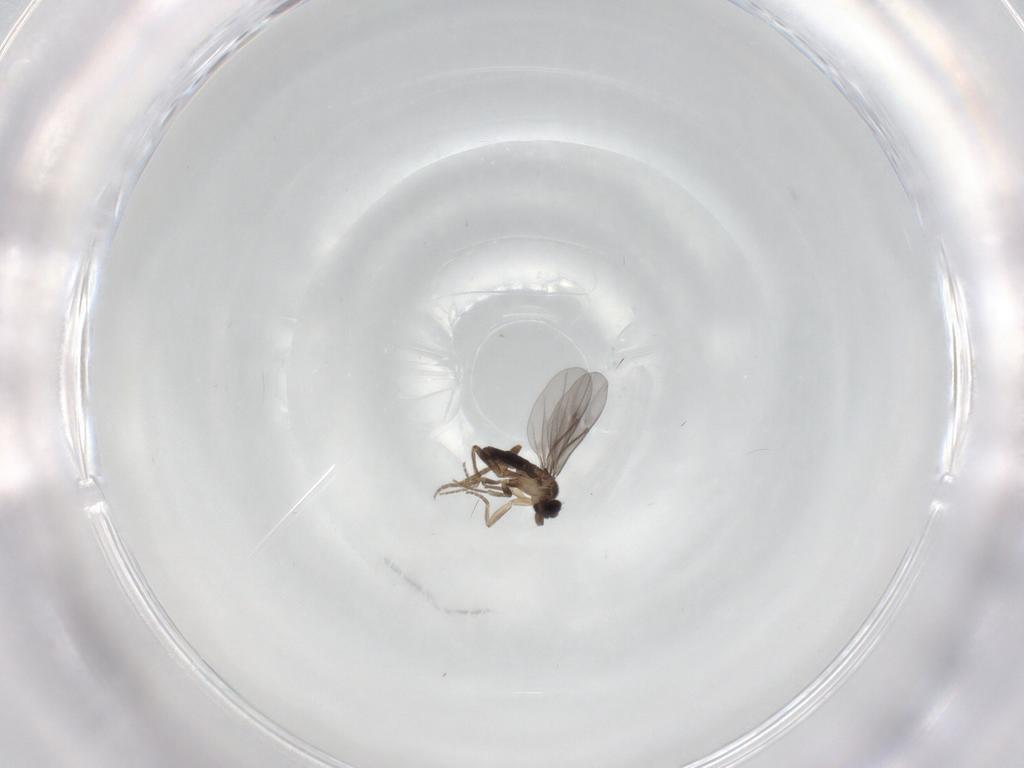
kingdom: Animalia
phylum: Arthropoda
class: Insecta
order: Diptera
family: Chironomidae
